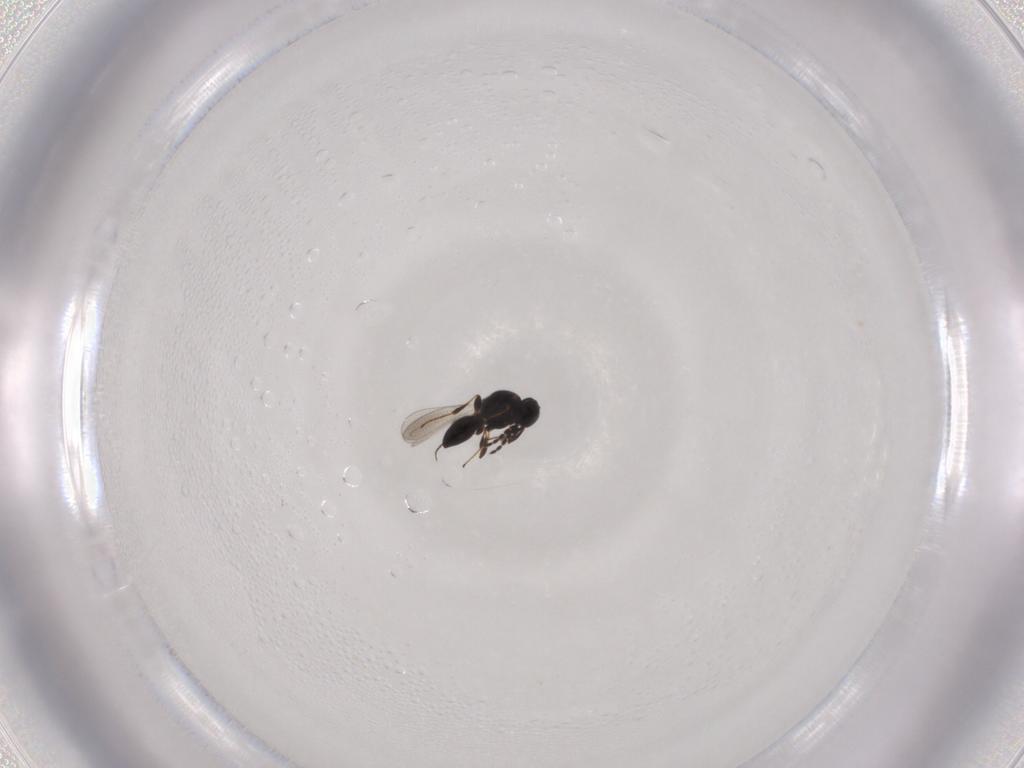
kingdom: Animalia
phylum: Arthropoda
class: Insecta
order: Hymenoptera
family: Platygastridae
